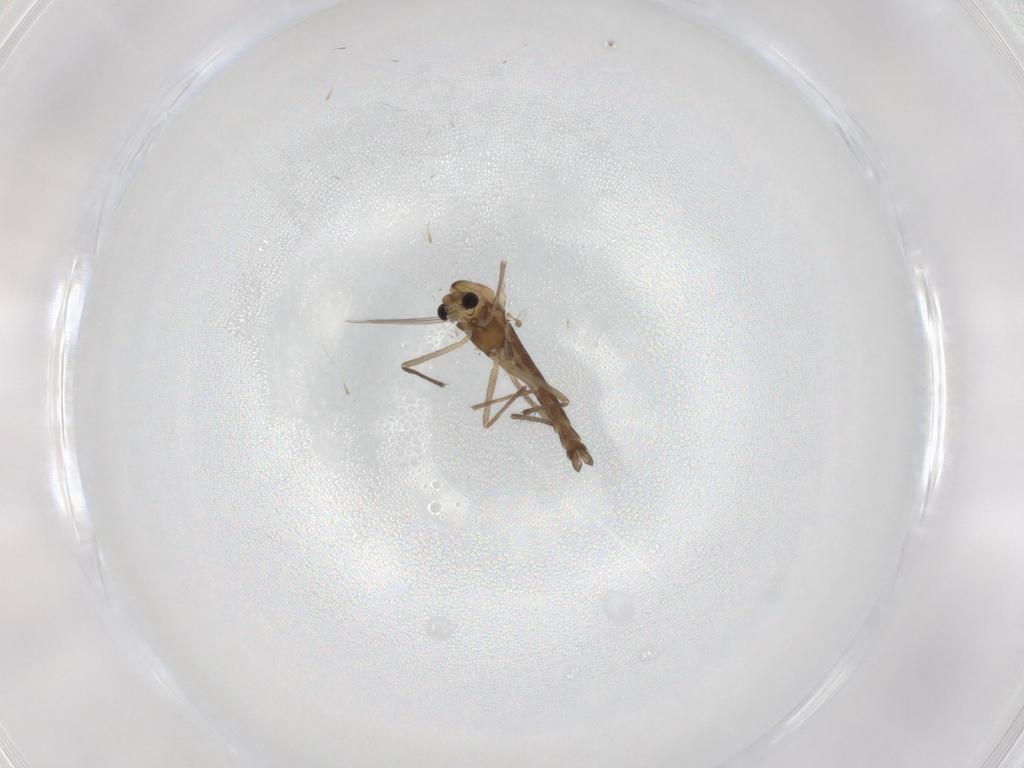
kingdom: Animalia
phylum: Arthropoda
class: Insecta
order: Diptera
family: Chironomidae
